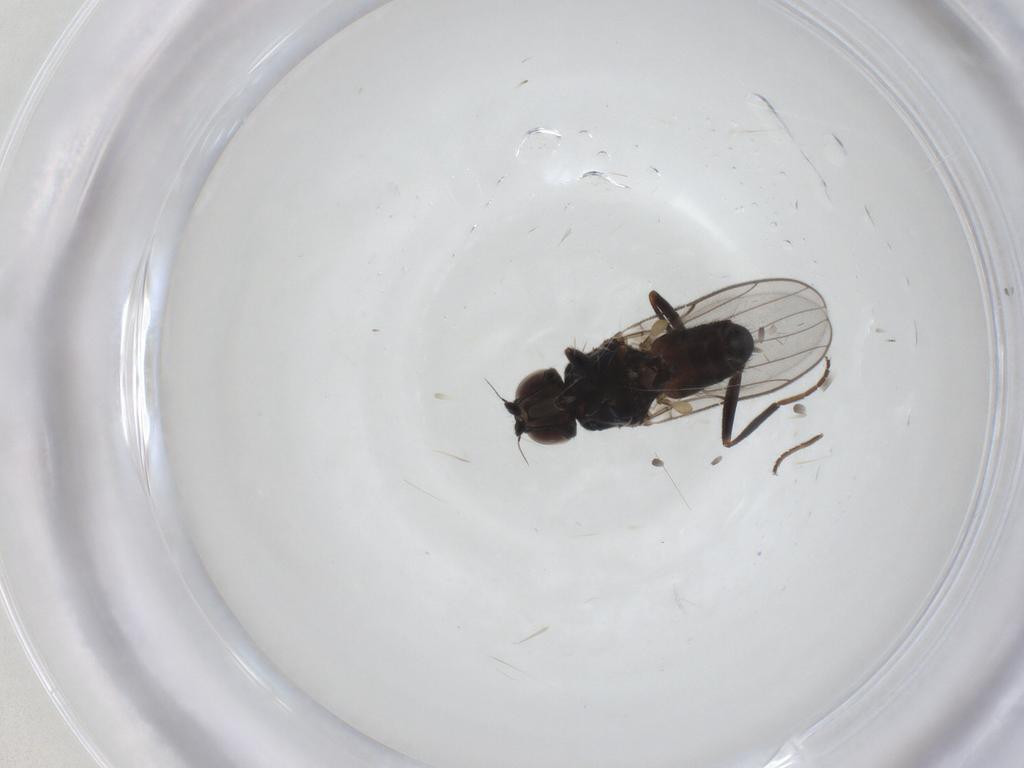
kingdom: Animalia
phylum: Arthropoda
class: Insecta
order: Diptera
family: Chloropidae
